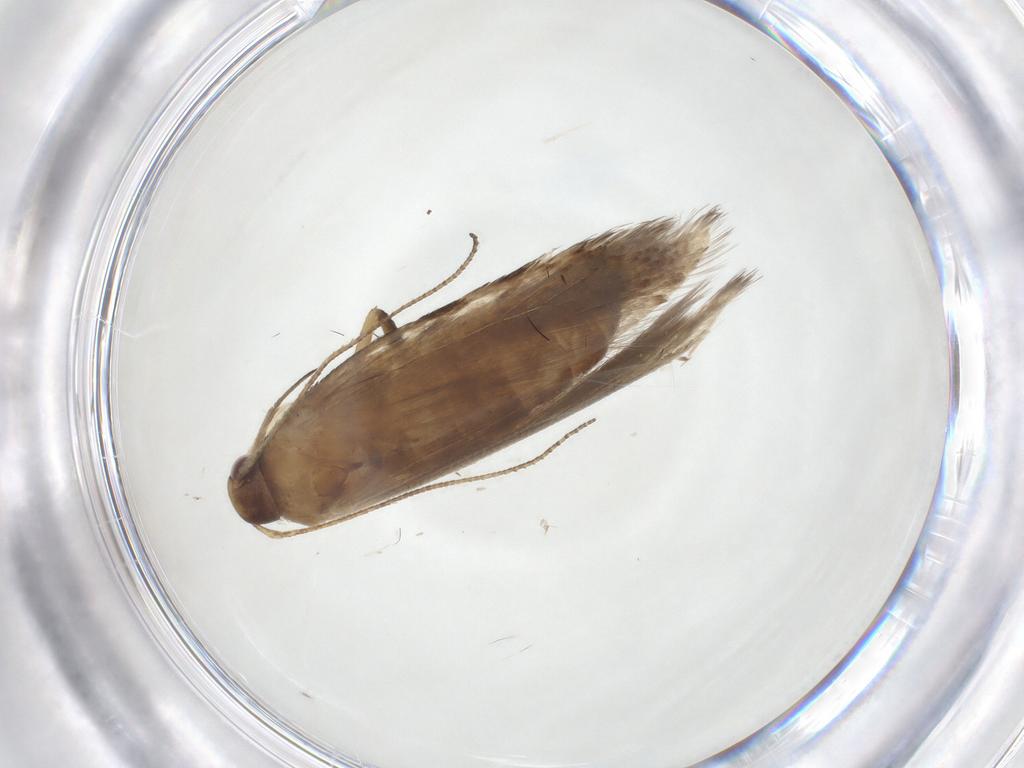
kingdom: Animalia
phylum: Arthropoda
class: Insecta
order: Lepidoptera
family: Gelechiidae
